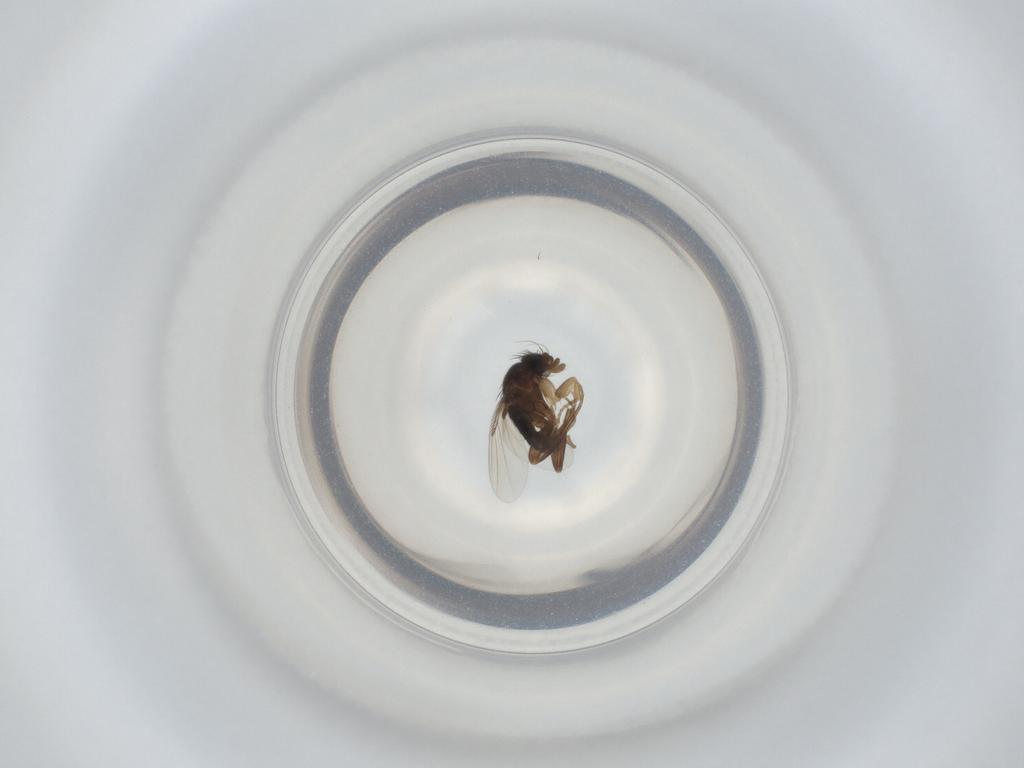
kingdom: Animalia
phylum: Arthropoda
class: Insecta
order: Diptera
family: Phoridae
